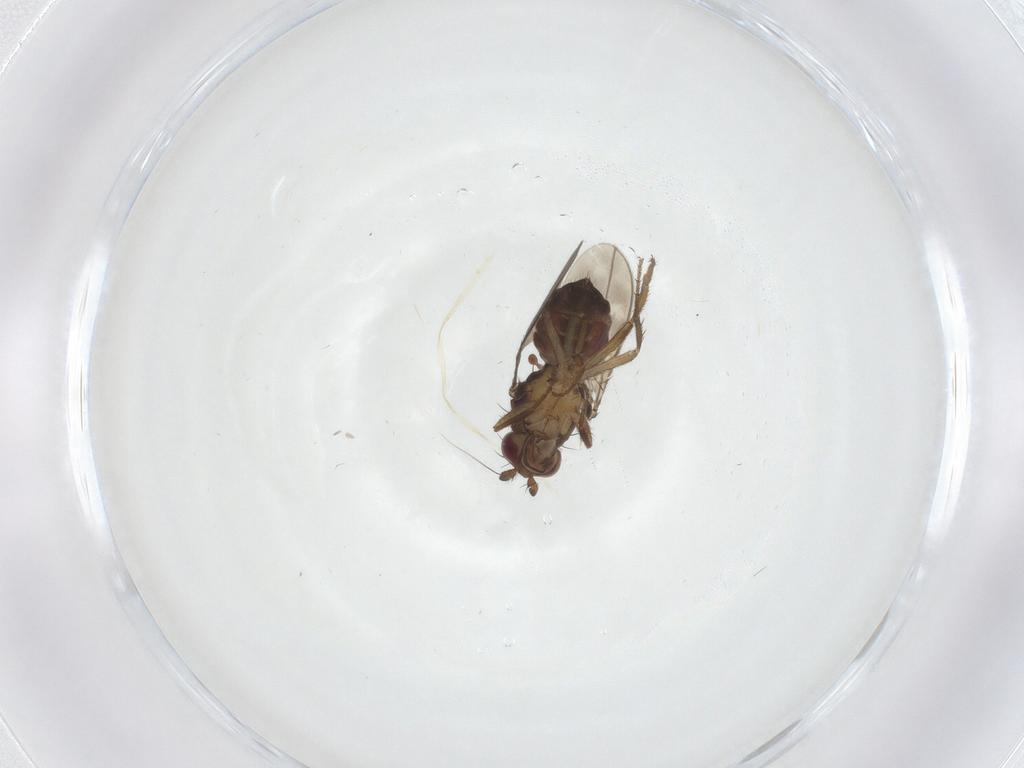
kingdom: Animalia
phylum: Arthropoda
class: Insecta
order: Diptera
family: Sphaeroceridae
